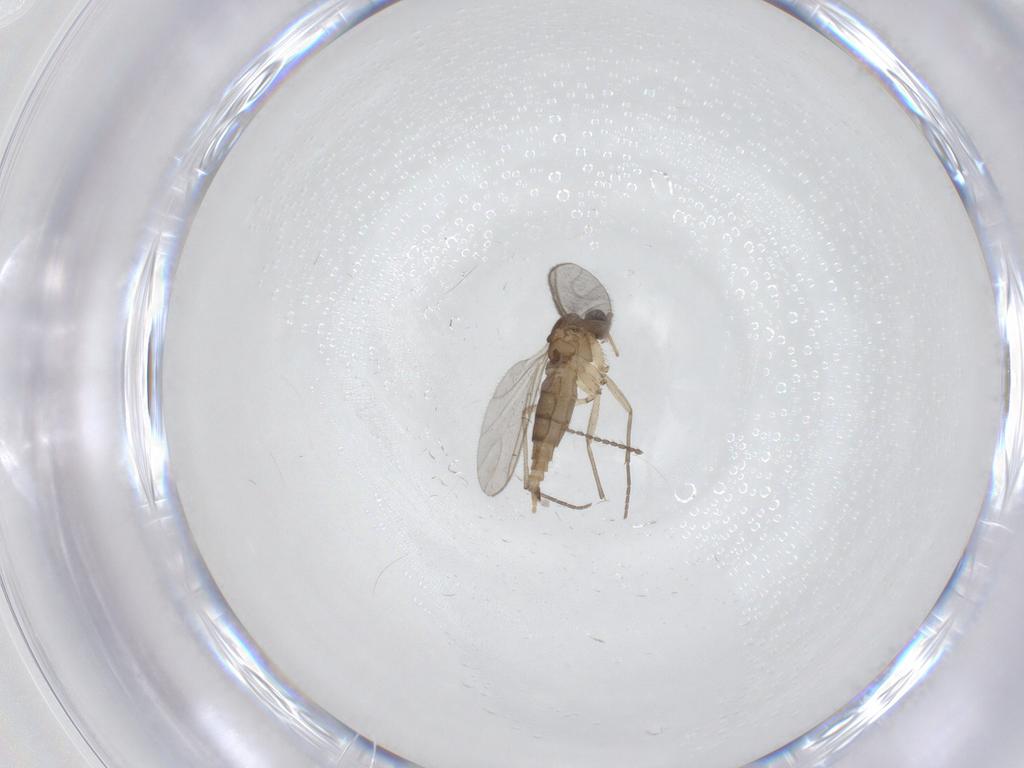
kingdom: Animalia
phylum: Arthropoda
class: Insecta
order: Diptera
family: Sciaridae
